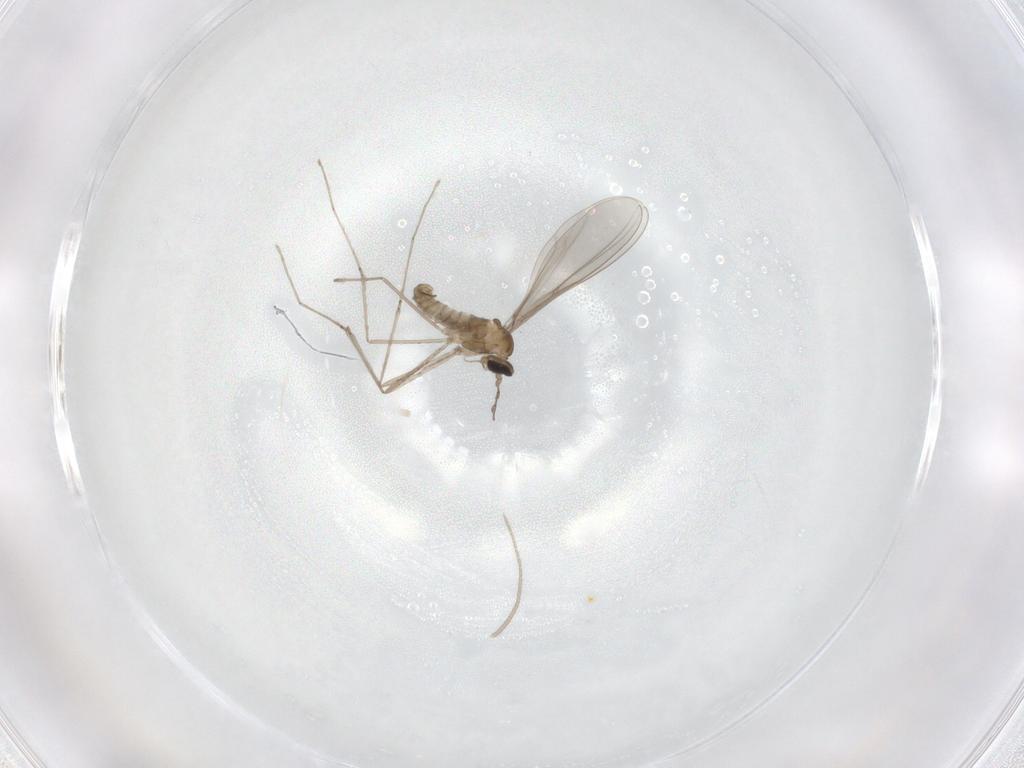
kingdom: Animalia
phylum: Arthropoda
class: Insecta
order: Diptera
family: Cecidomyiidae
